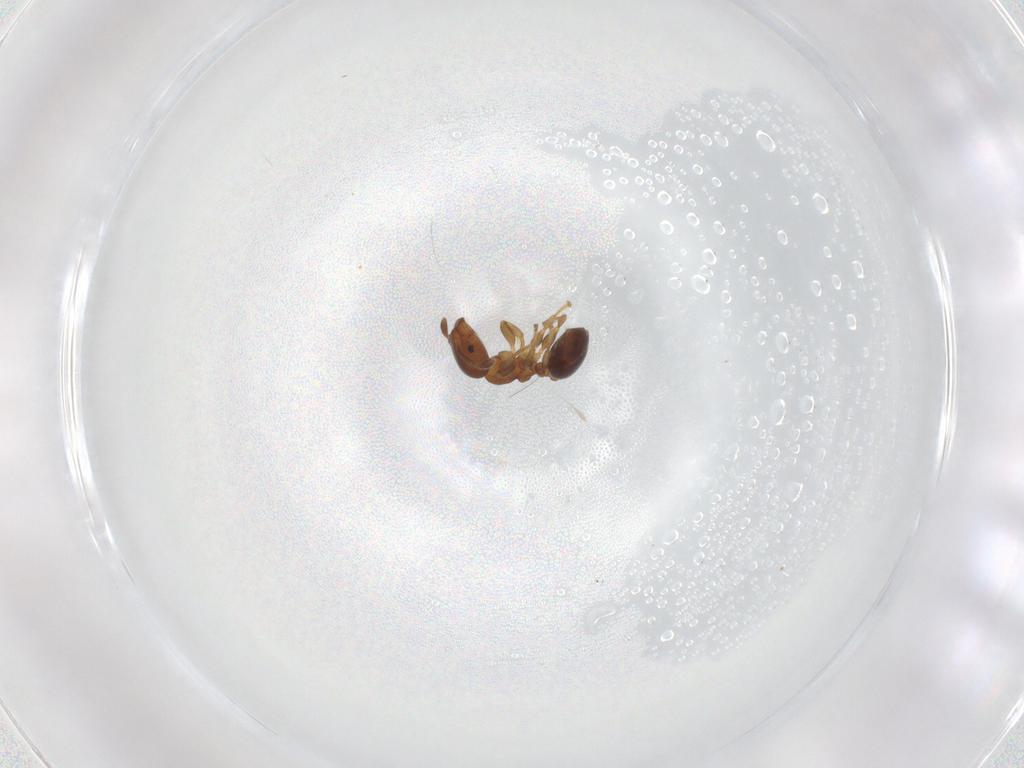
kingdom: Animalia
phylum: Arthropoda
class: Insecta
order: Hymenoptera
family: Formicidae
